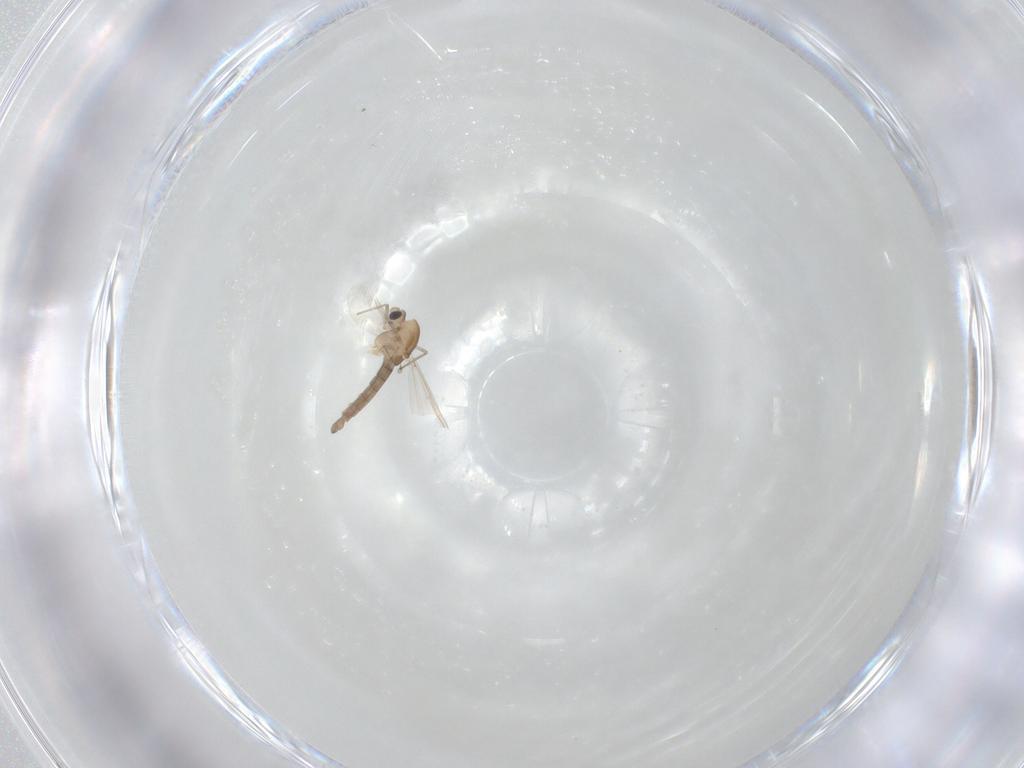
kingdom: Animalia
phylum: Arthropoda
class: Insecta
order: Diptera
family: Chironomidae
